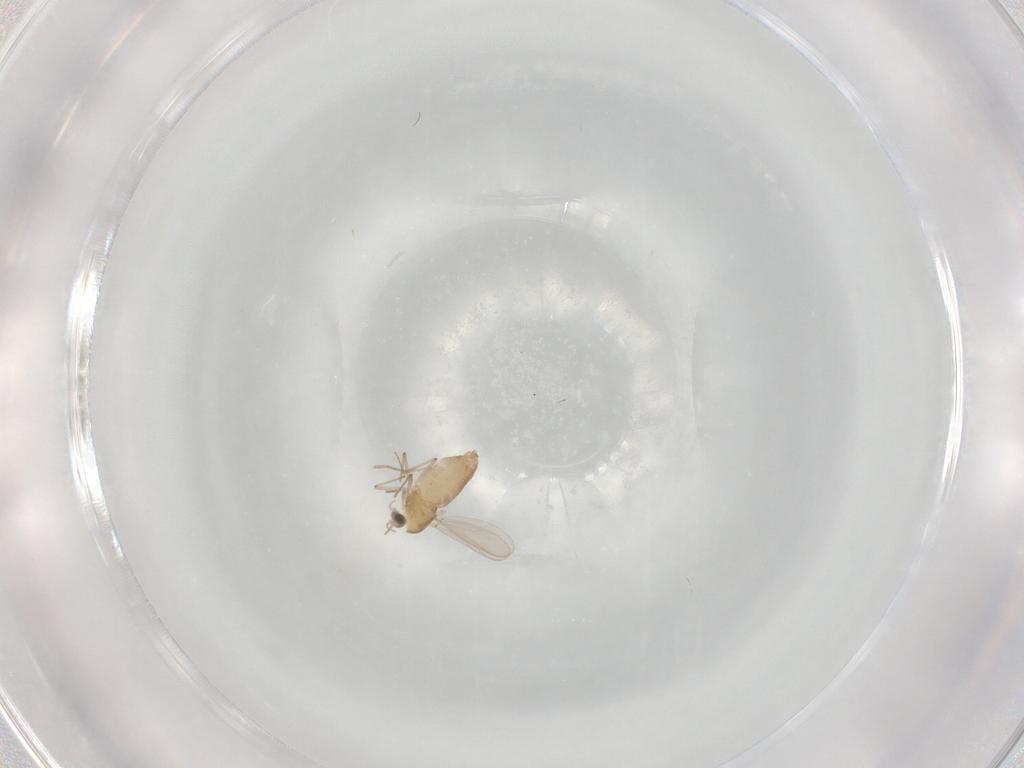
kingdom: Animalia
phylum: Arthropoda
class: Insecta
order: Diptera
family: Chironomidae
